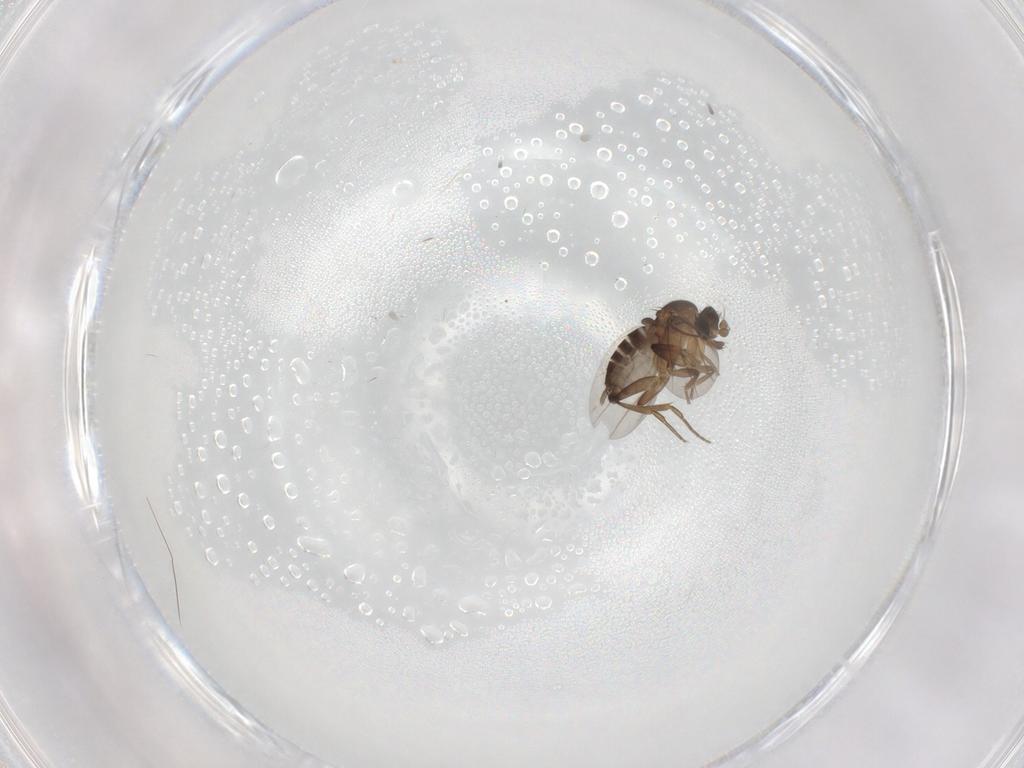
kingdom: Animalia
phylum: Arthropoda
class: Insecta
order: Diptera
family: Phoridae
